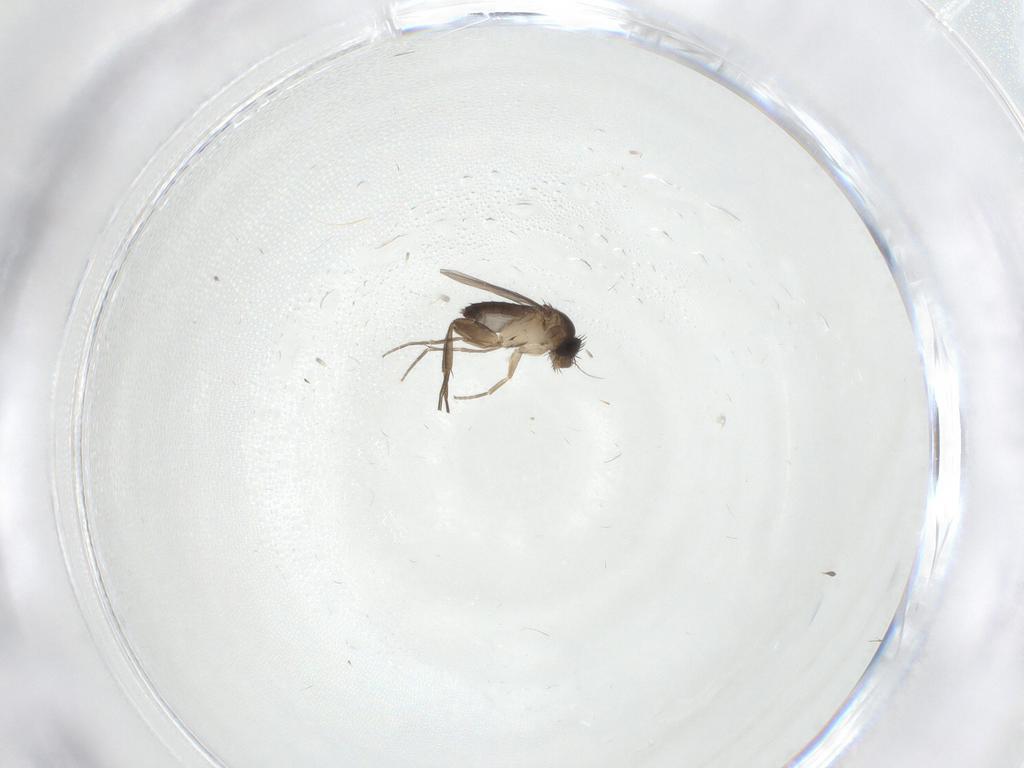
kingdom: Animalia
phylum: Arthropoda
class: Insecta
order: Diptera
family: Phoridae
